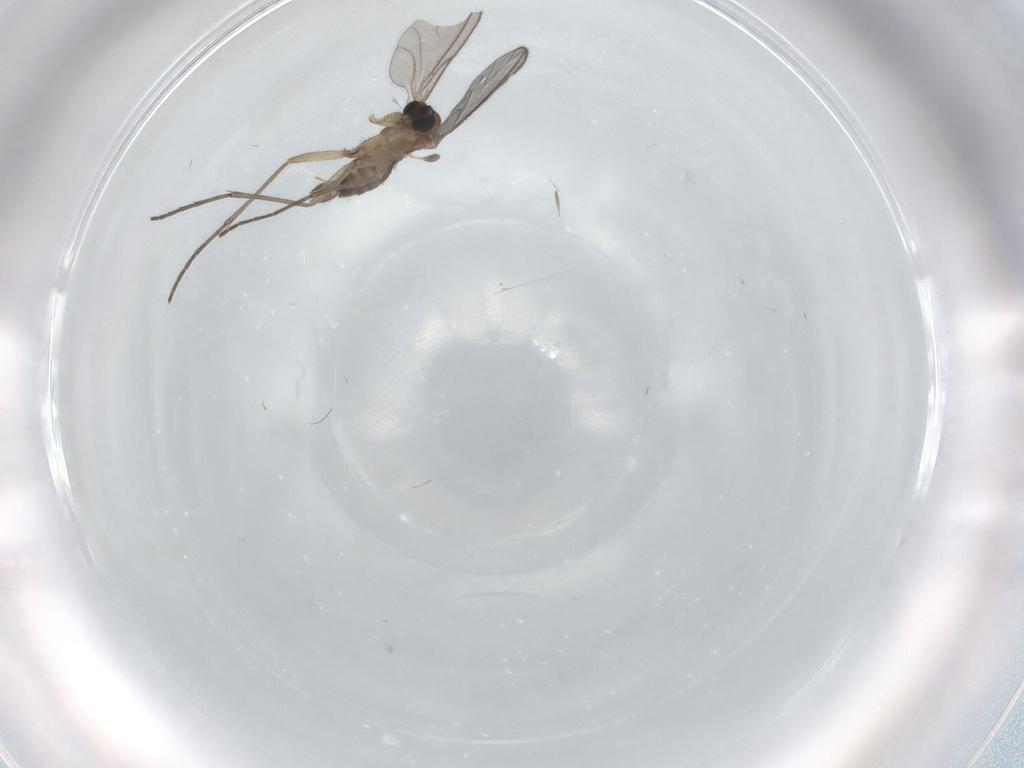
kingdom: Animalia
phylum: Arthropoda
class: Insecta
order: Diptera
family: Sciaridae
